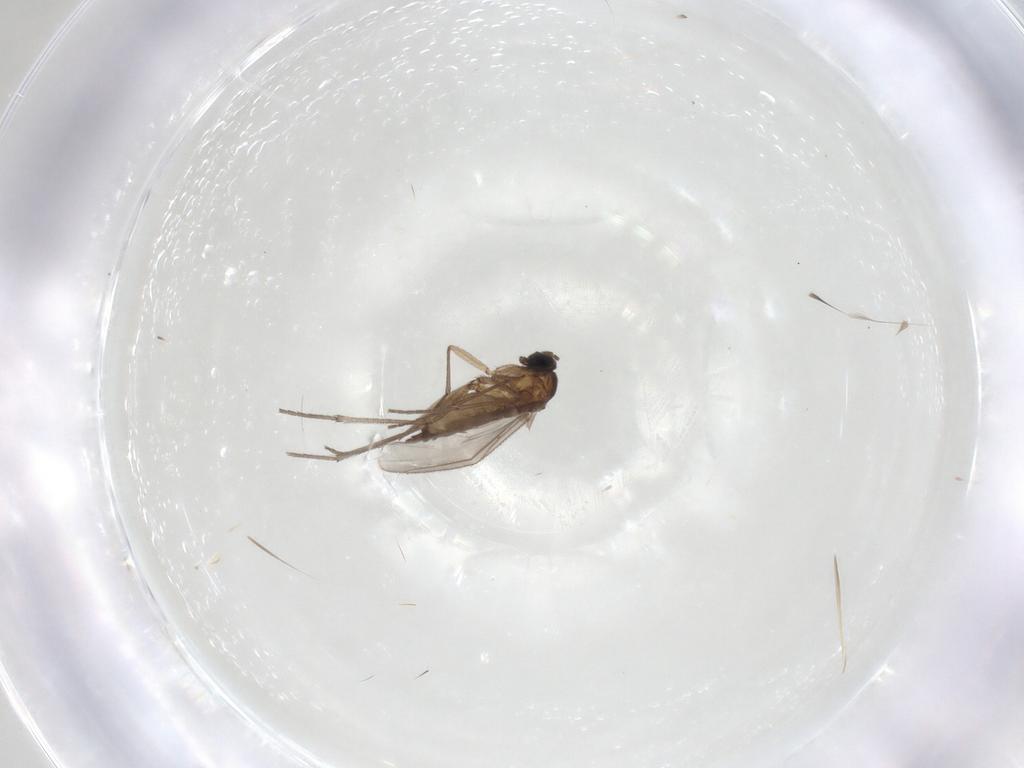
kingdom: Animalia
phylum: Arthropoda
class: Insecta
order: Diptera
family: Sciaridae
